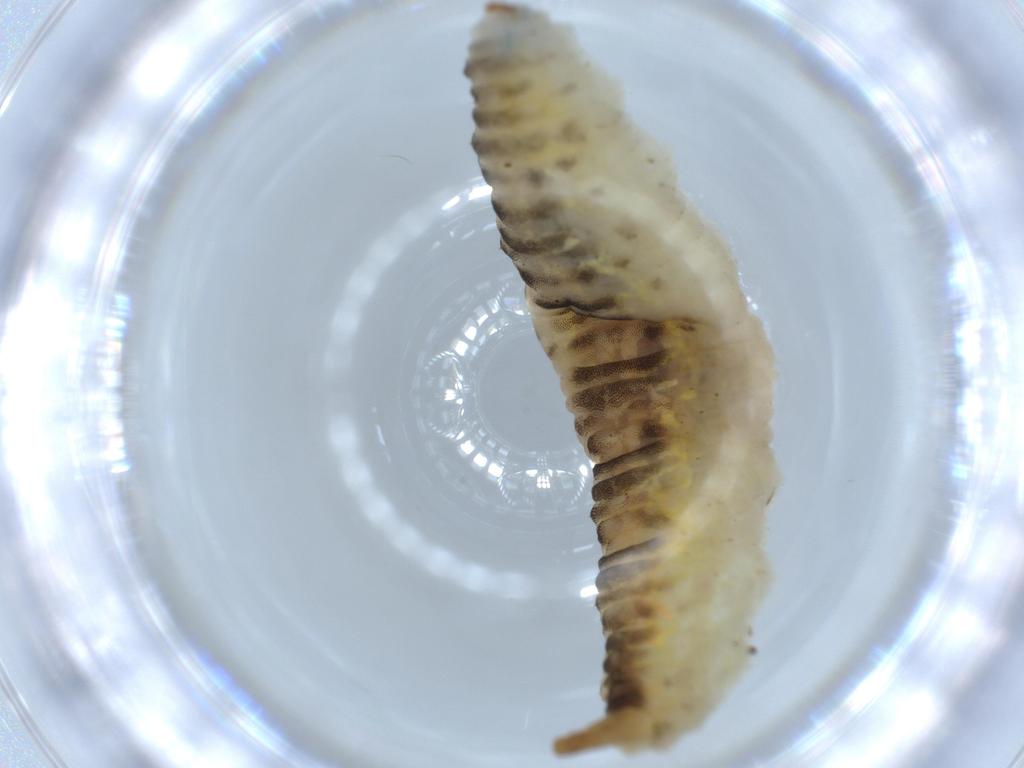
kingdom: Animalia
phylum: Arthropoda
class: Insecta
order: Diptera
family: Syrphidae
